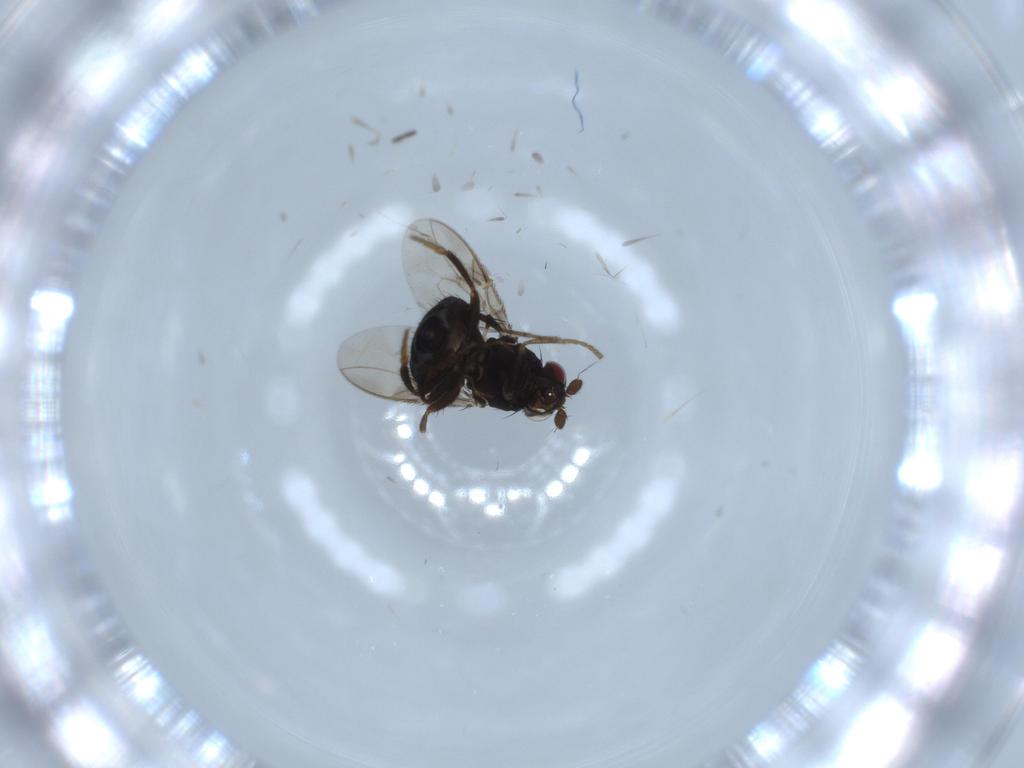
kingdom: Animalia
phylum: Arthropoda
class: Insecta
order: Diptera
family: Sphaeroceridae
